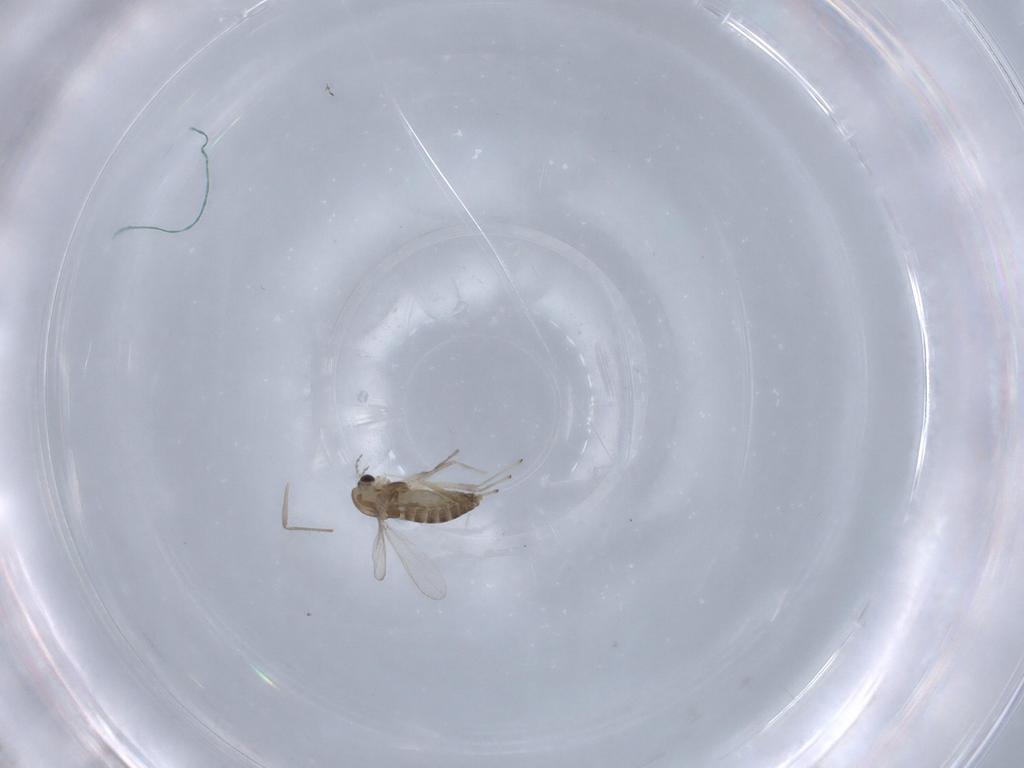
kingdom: Animalia
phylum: Arthropoda
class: Insecta
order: Diptera
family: Chironomidae
